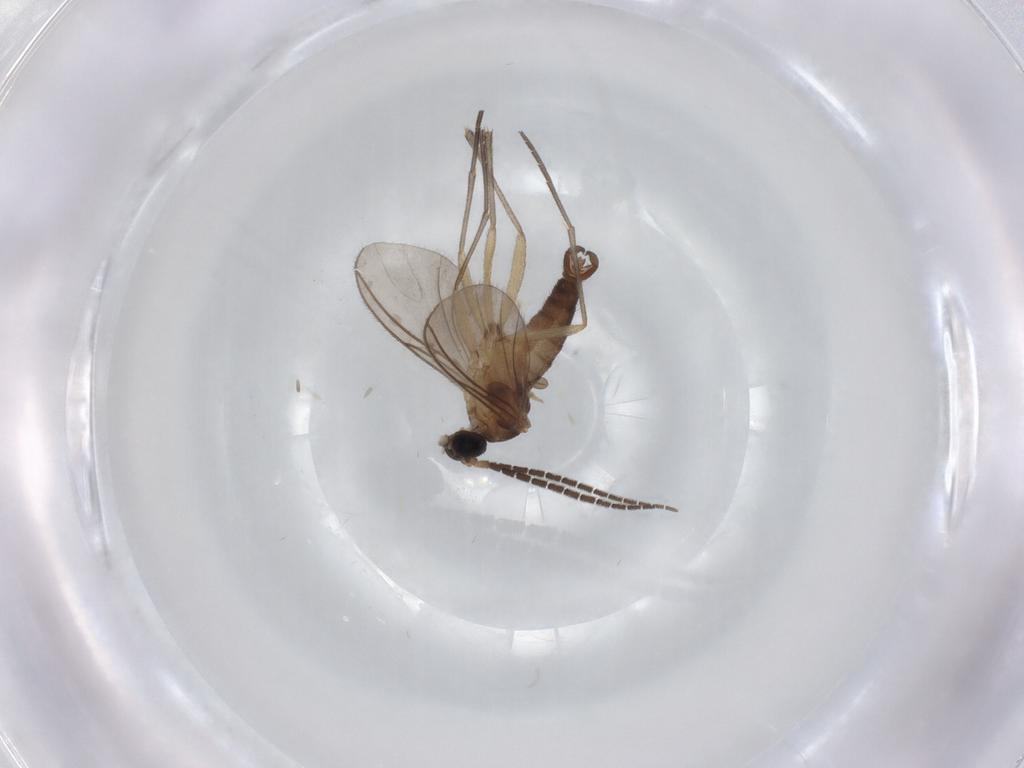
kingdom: Animalia
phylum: Arthropoda
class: Insecta
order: Diptera
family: Sciaridae
